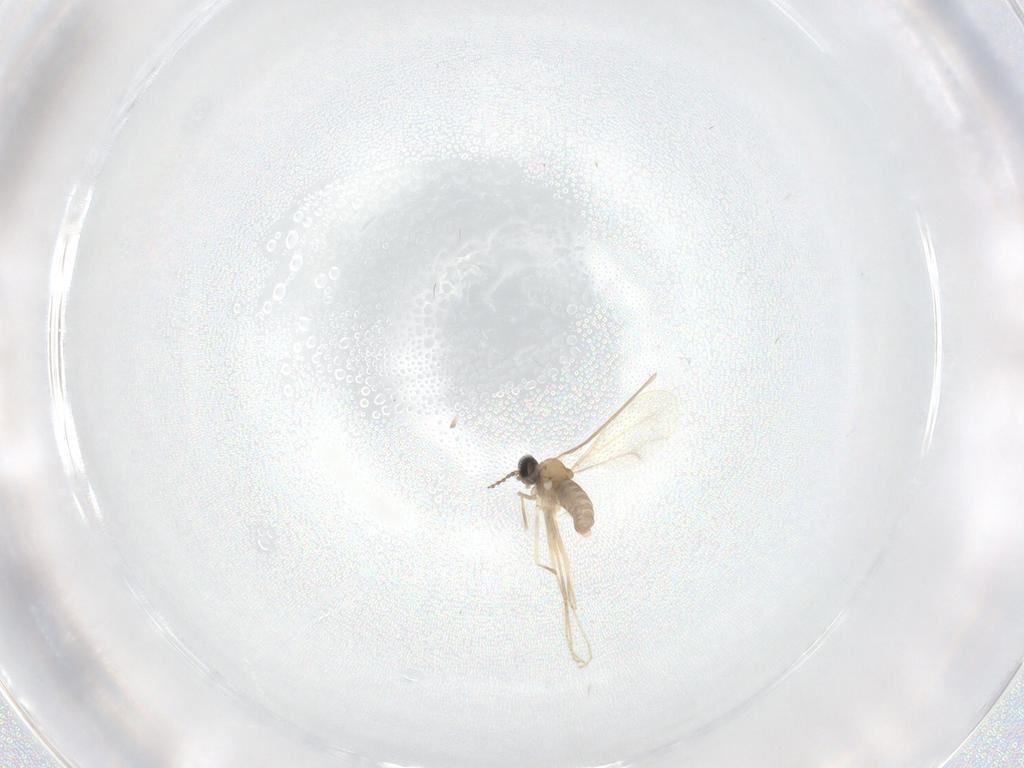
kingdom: Animalia
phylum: Arthropoda
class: Insecta
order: Diptera
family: Cecidomyiidae
